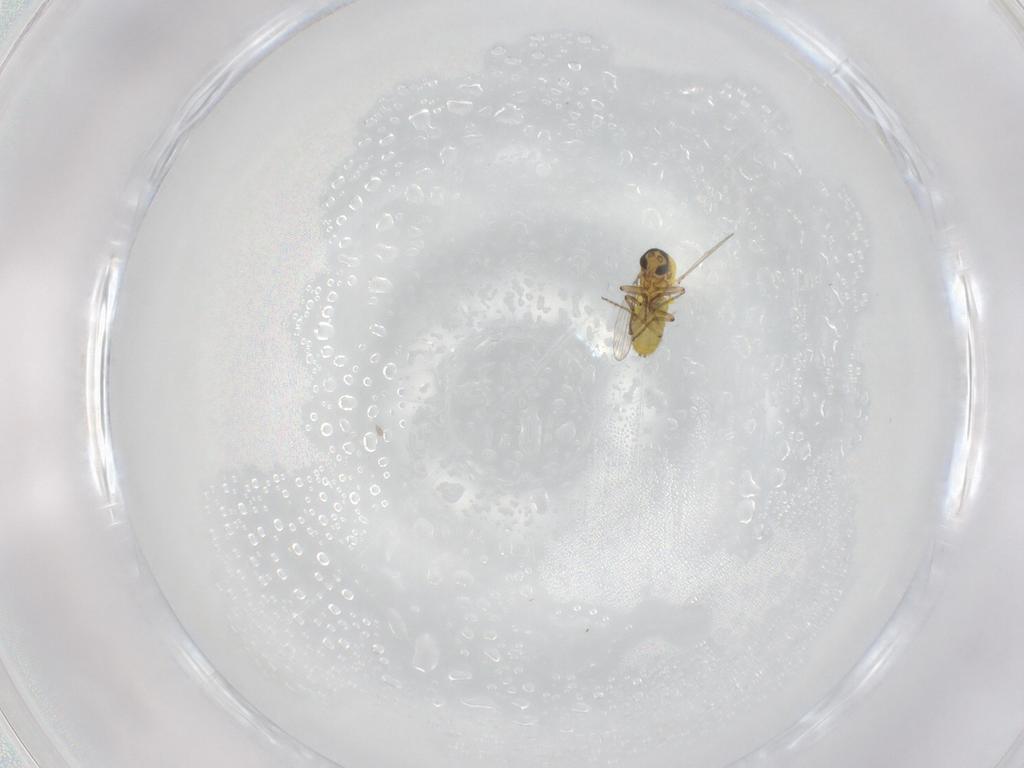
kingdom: Animalia
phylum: Arthropoda
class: Insecta
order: Diptera
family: Ceratopogonidae
